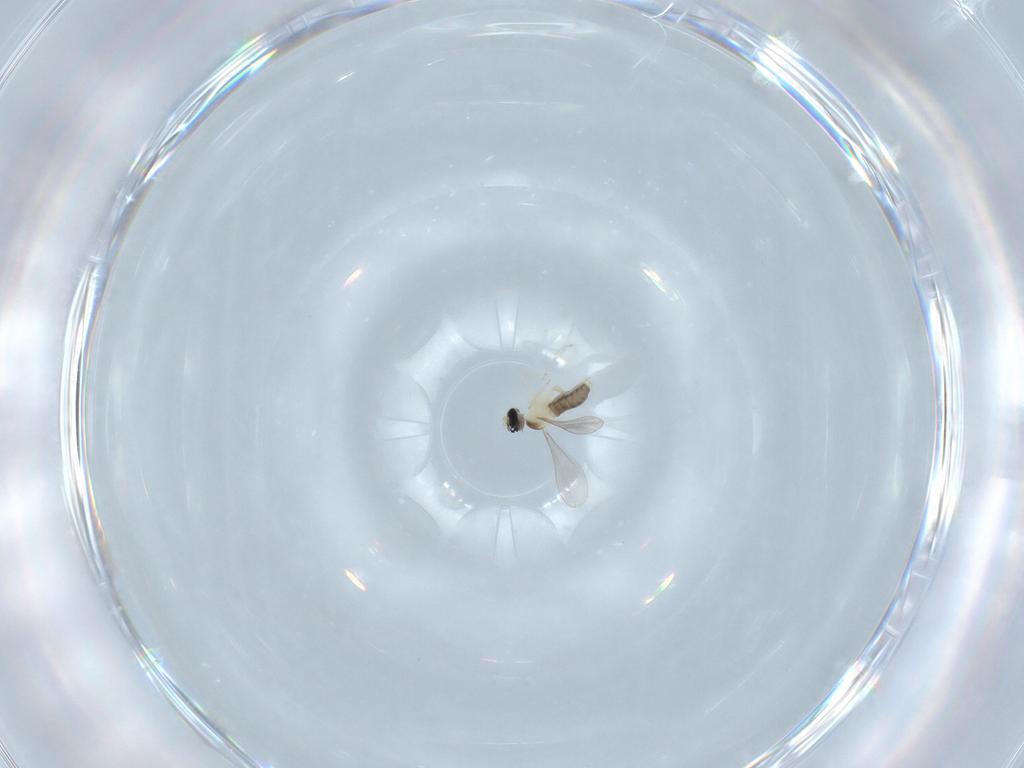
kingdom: Animalia
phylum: Arthropoda
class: Insecta
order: Diptera
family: Cecidomyiidae
